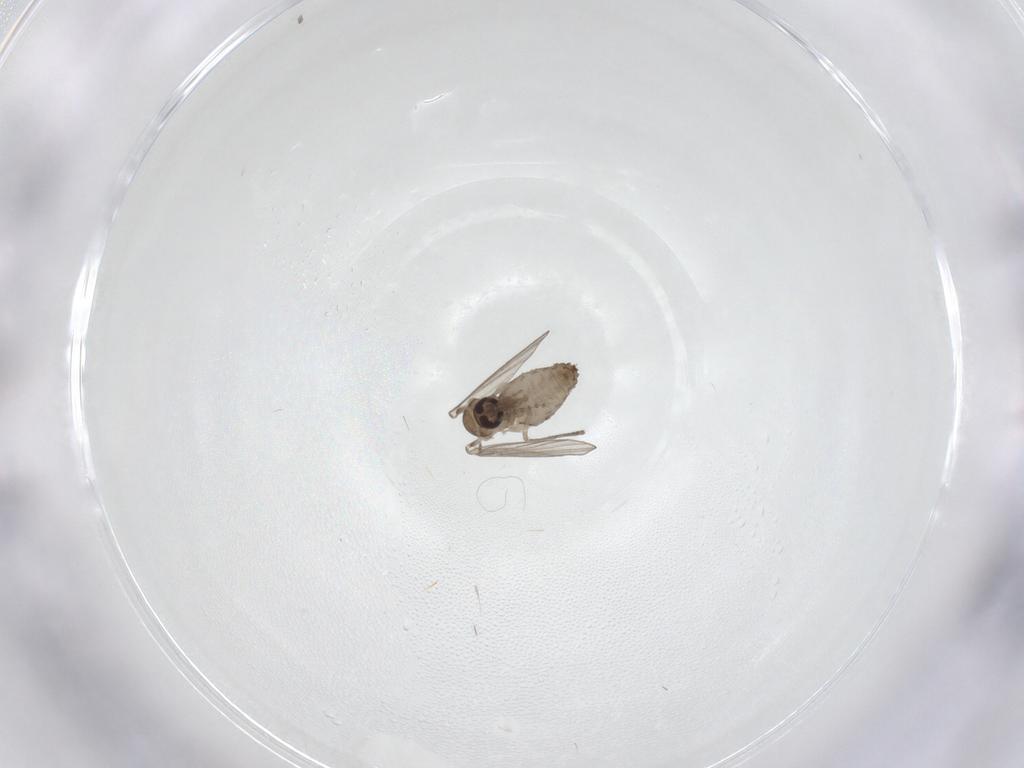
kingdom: Animalia
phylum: Arthropoda
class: Insecta
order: Diptera
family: Psychodidae
